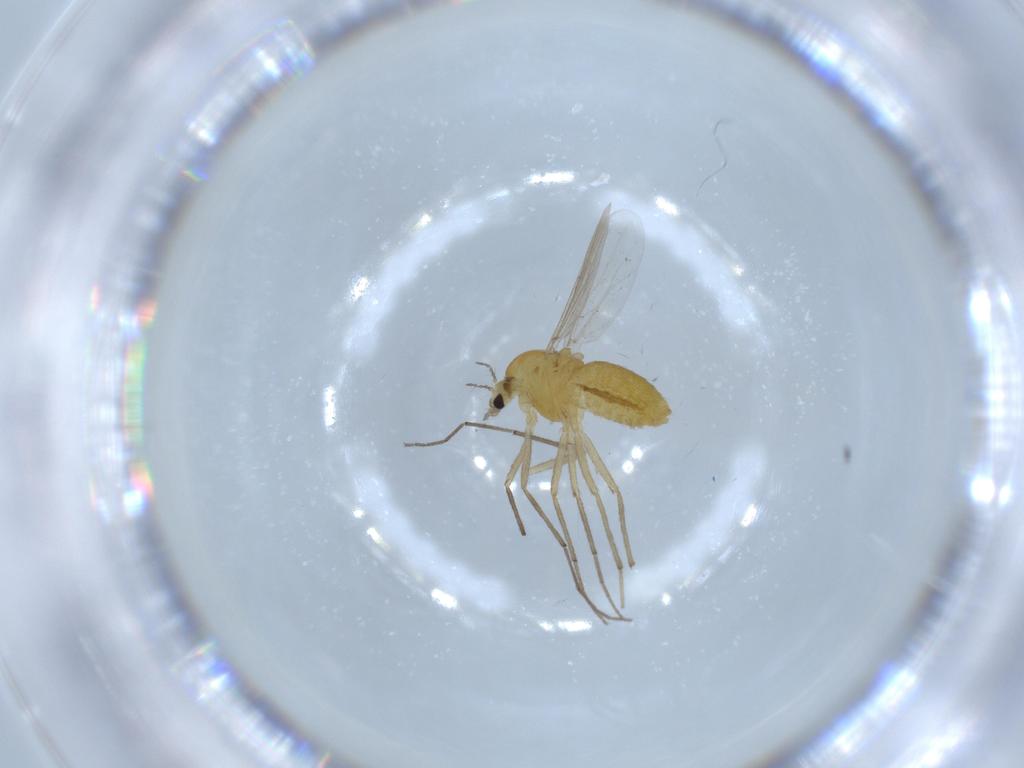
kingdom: Animalia
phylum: Arthropoda
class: Insecta
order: Diptera
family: Chironomidae
